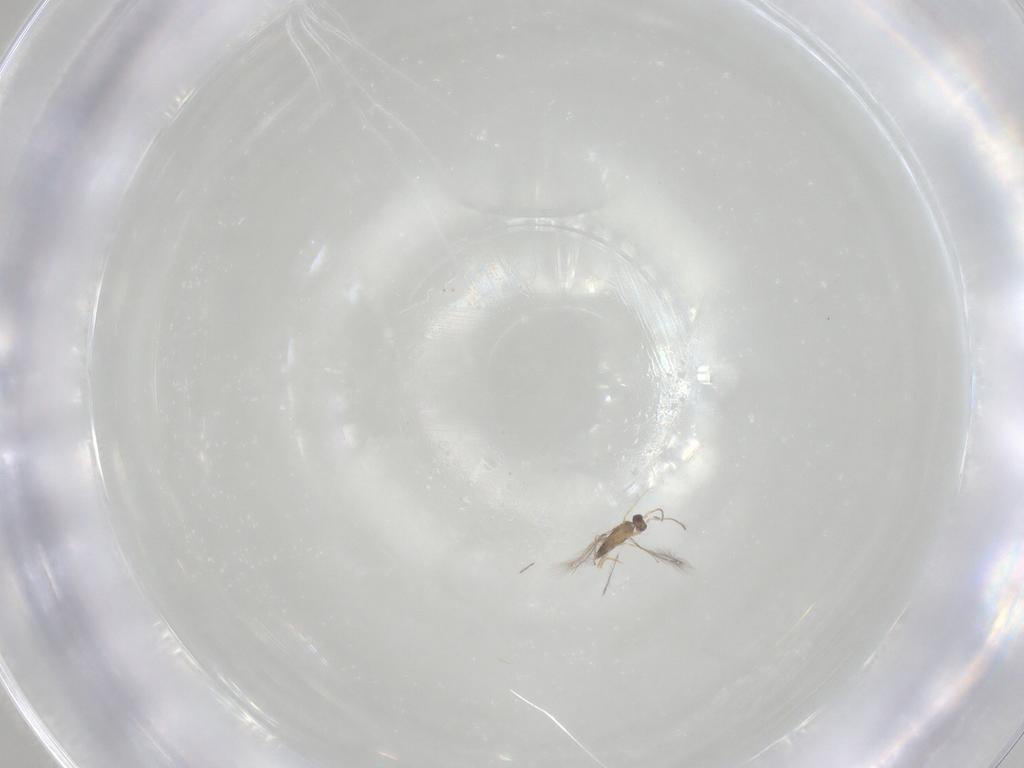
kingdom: Animalia
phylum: Arthropoda
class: Insecta
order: Hymenoptera
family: Mymaridae
